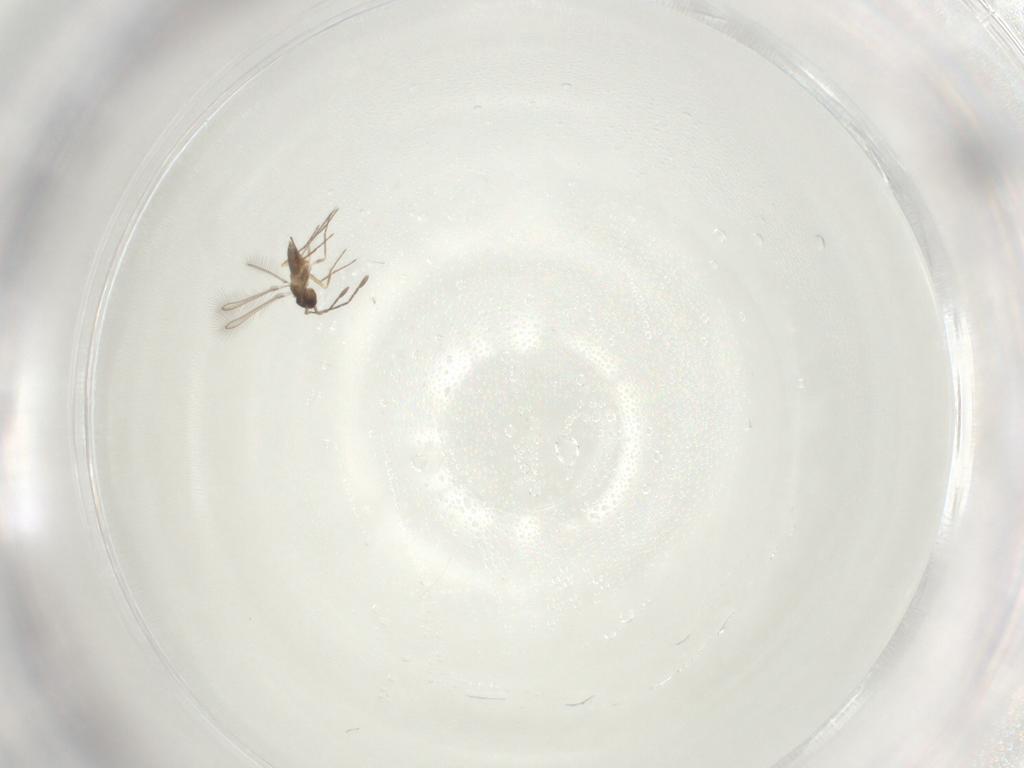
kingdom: Animalia
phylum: Arthropoda
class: Insecta
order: Hymenoptera
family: Mymaridae
